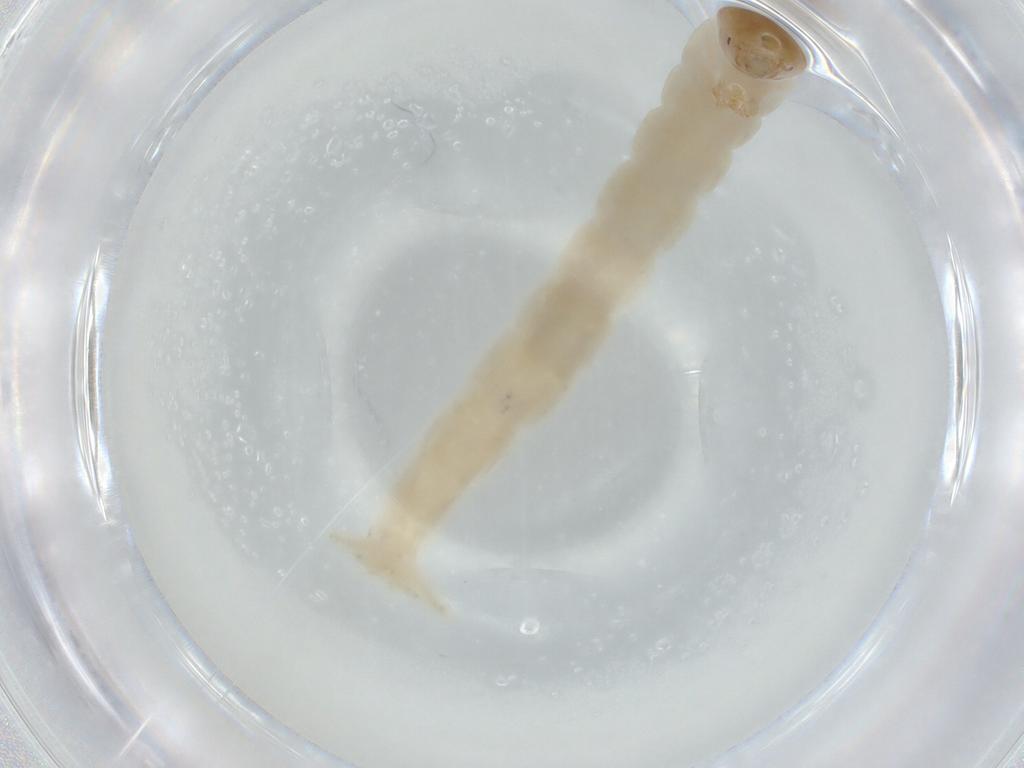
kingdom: Animalia
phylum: Arthropoda
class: Insecta
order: Diptera
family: Chironomidae
